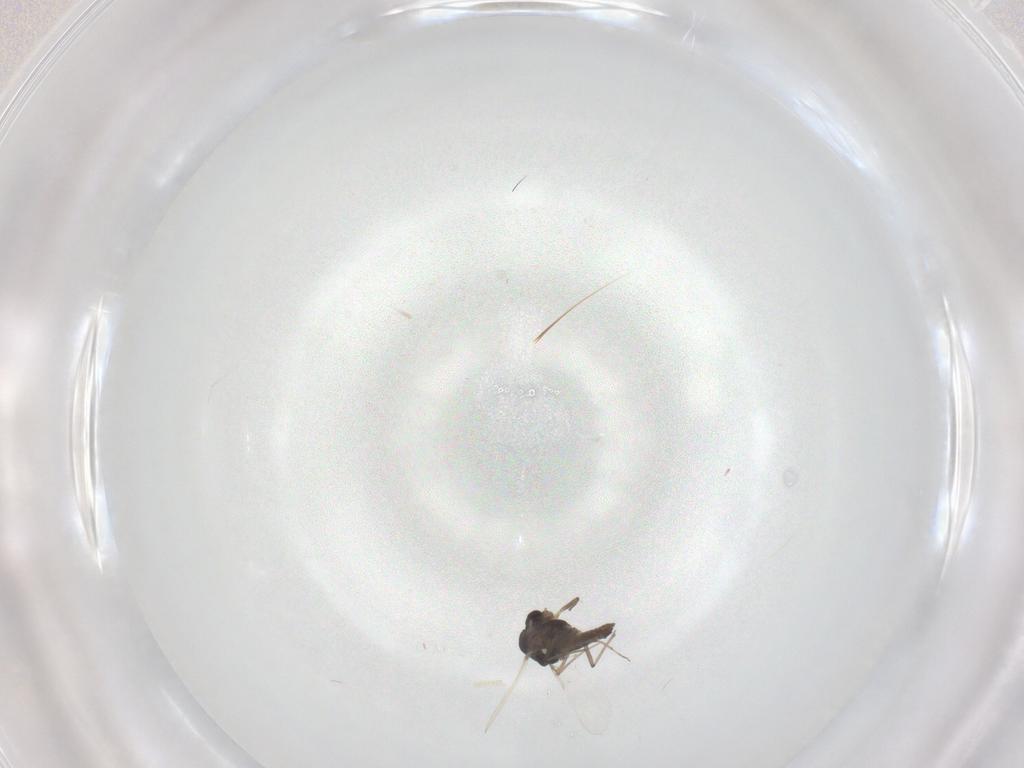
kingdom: Animalia
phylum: Arthropoda
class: Insecta
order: Diptera
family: Chironomidae
